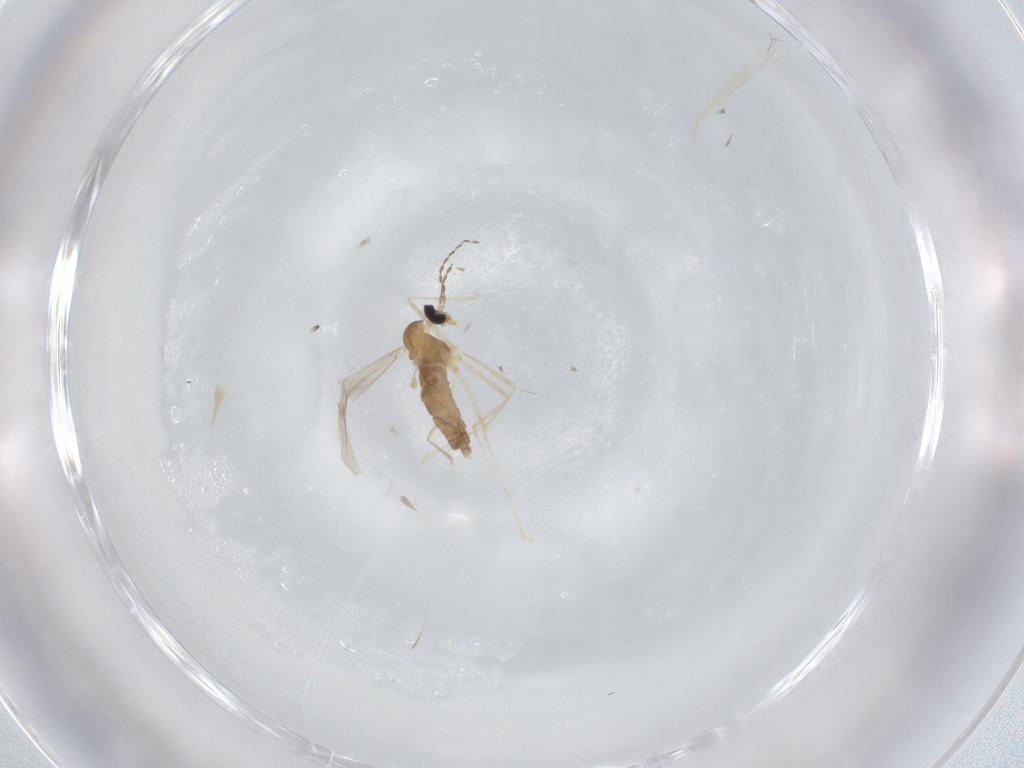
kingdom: Animalia
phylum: Arthropoda
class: Insecta
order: Diptera
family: Cecidomyiidae
